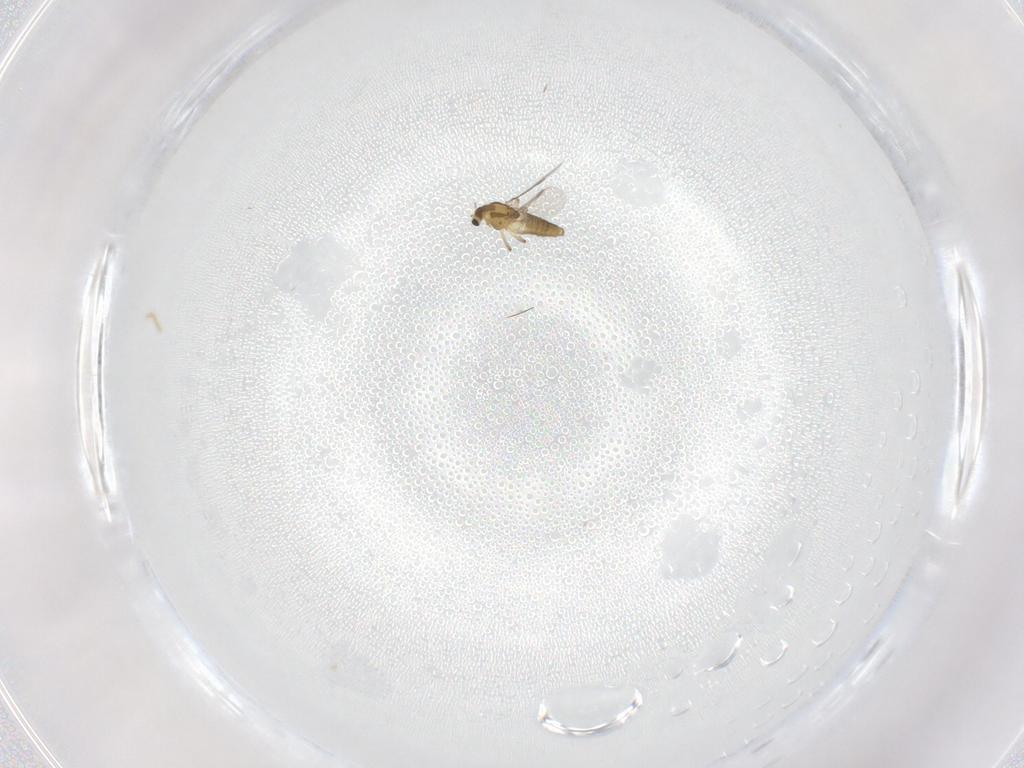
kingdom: Animalia
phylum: Arthropoda
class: Insecta
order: Diptera
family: Chironomidae
